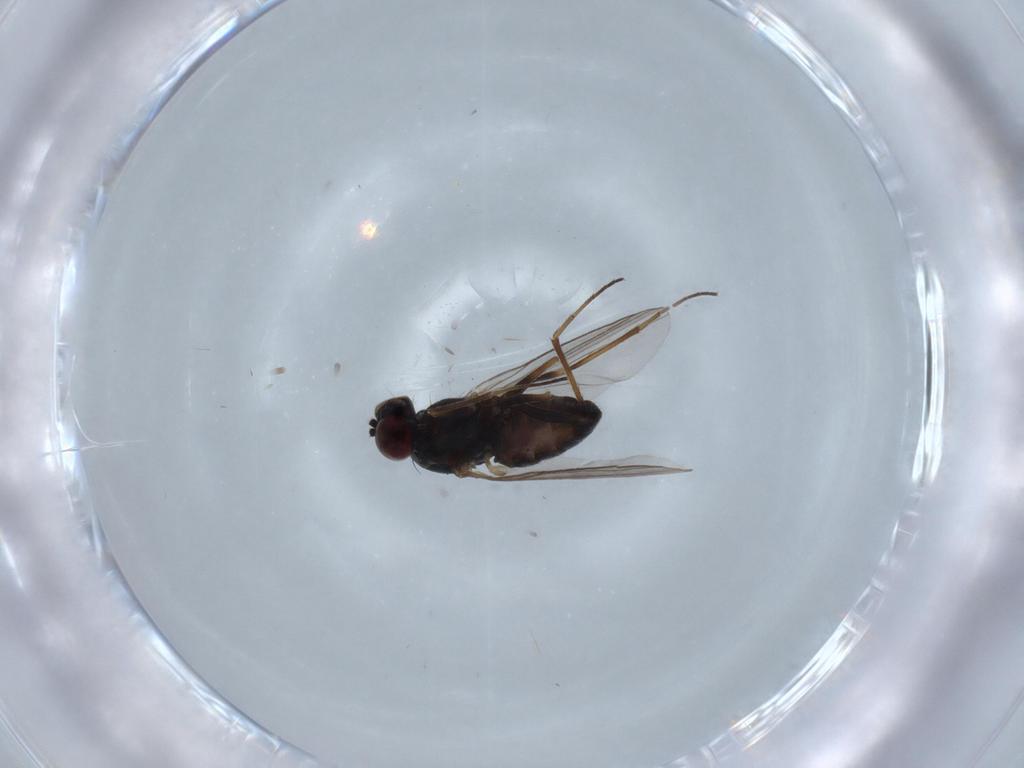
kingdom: Animalia
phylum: Arthropoda
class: Insecta
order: Diptera
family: Dolichopodidae
